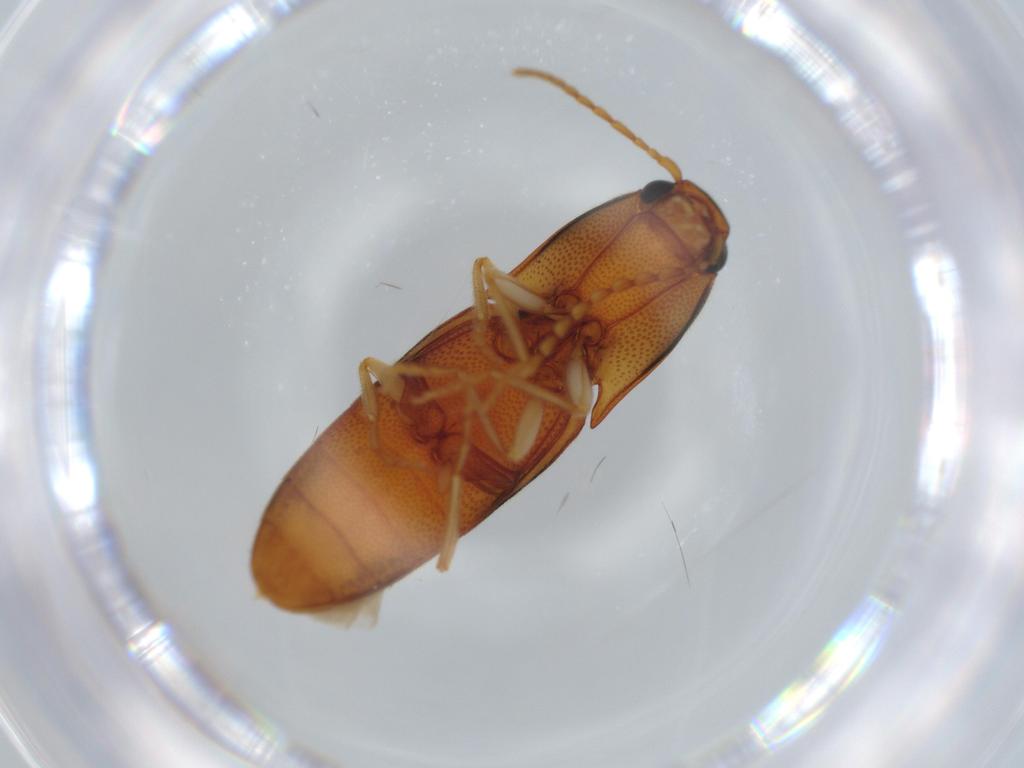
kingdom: Animalia
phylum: Arthropoda
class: Insecta
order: Coleoptera
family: Elateridae
